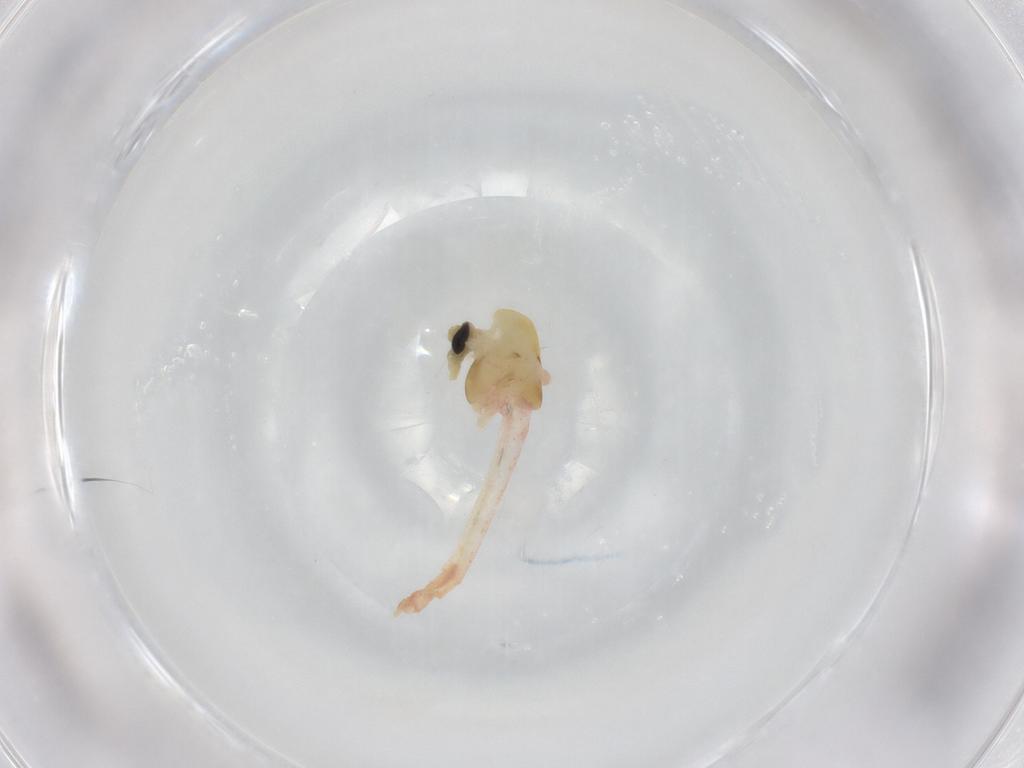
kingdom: Animalia
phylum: Arthropoda
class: Insecta
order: Diptera
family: Chironomidae
